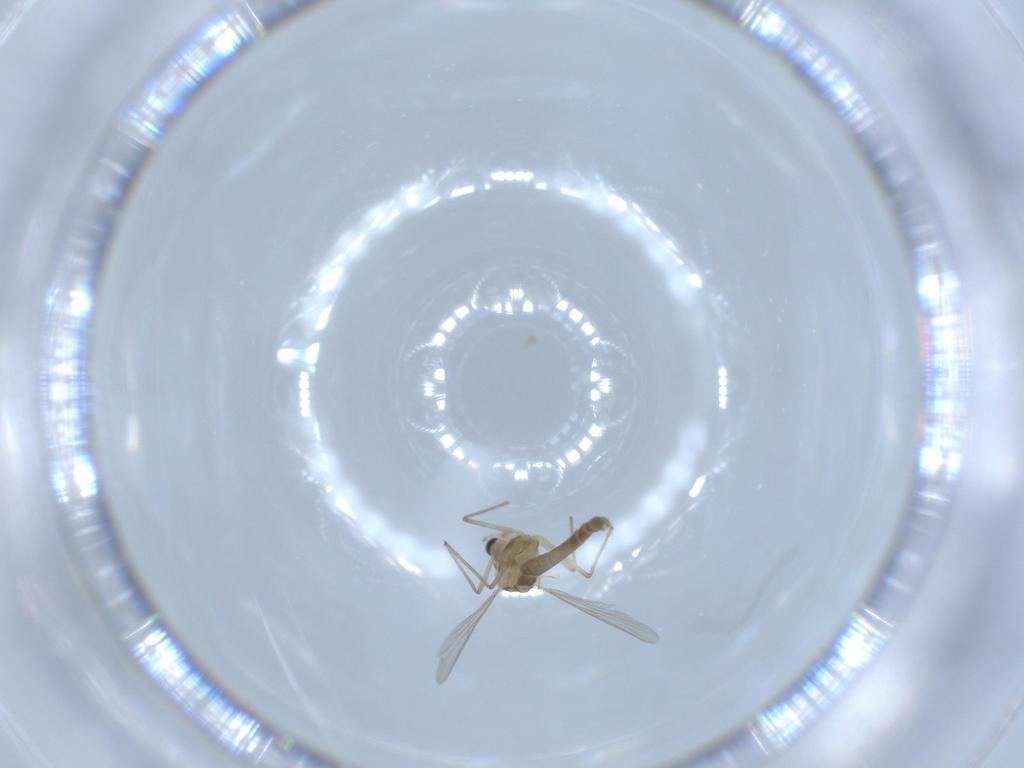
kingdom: Animalia
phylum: Arthropoda
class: Insecta
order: Diptera
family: Chironomidae
